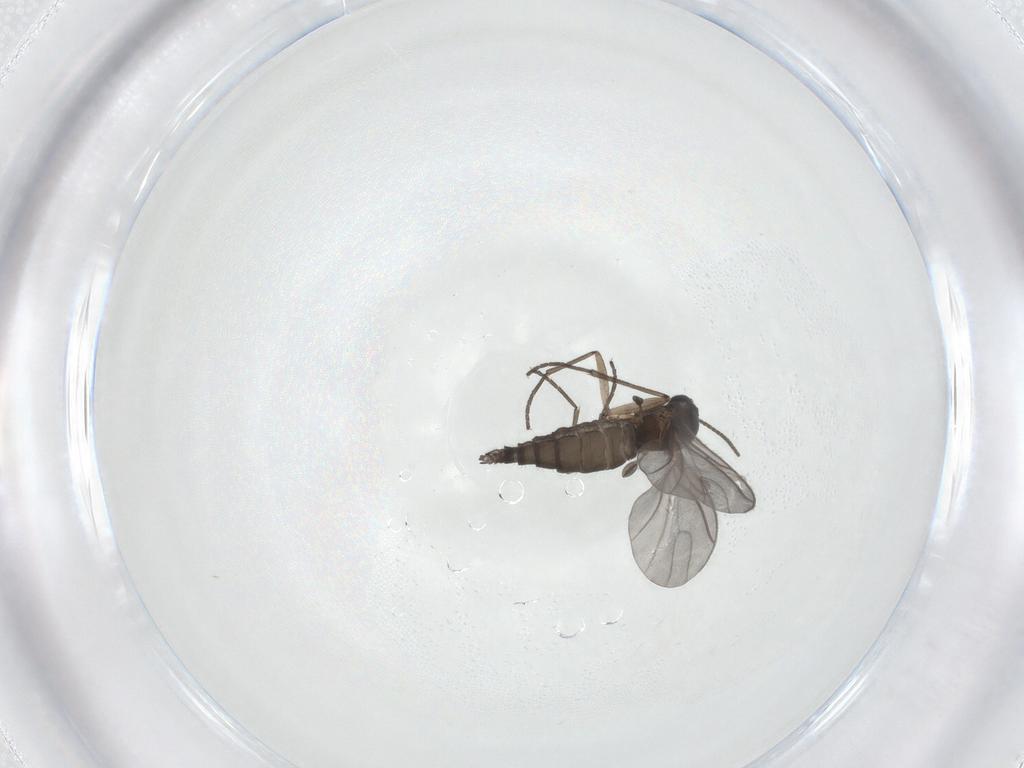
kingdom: Animalia
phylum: Arthropoda
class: Insecta
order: Diptera
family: Sciaridae
